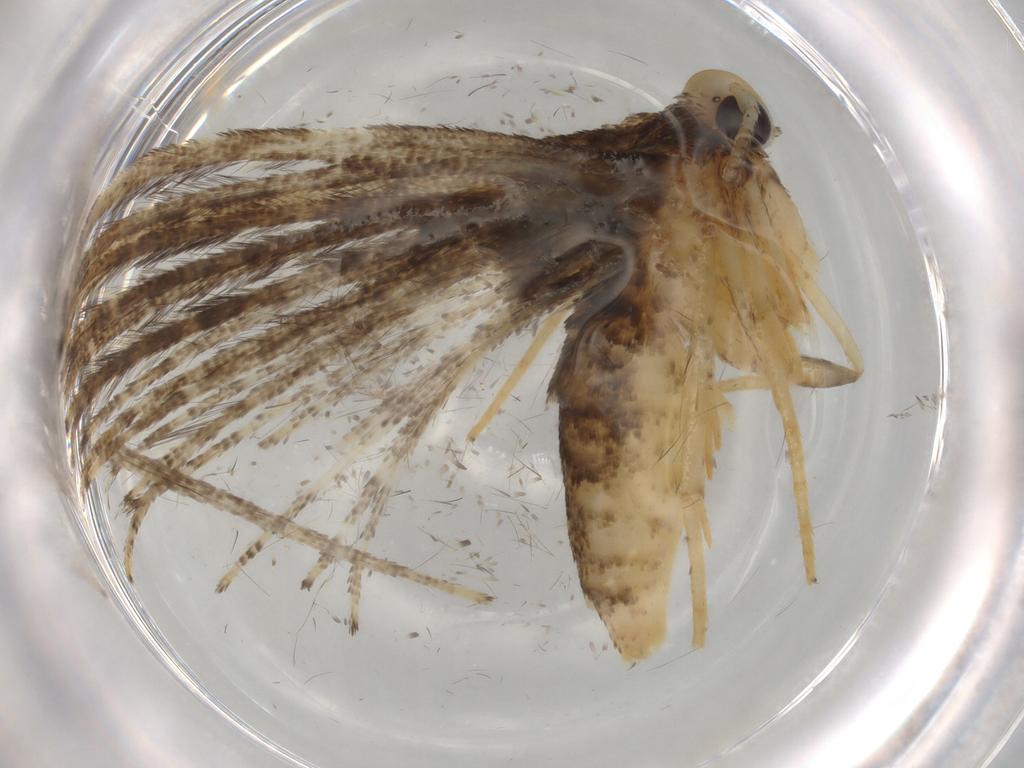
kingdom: Animalia
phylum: Arthropoda
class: Insecta
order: Lepidoptera
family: Gelechiidae
